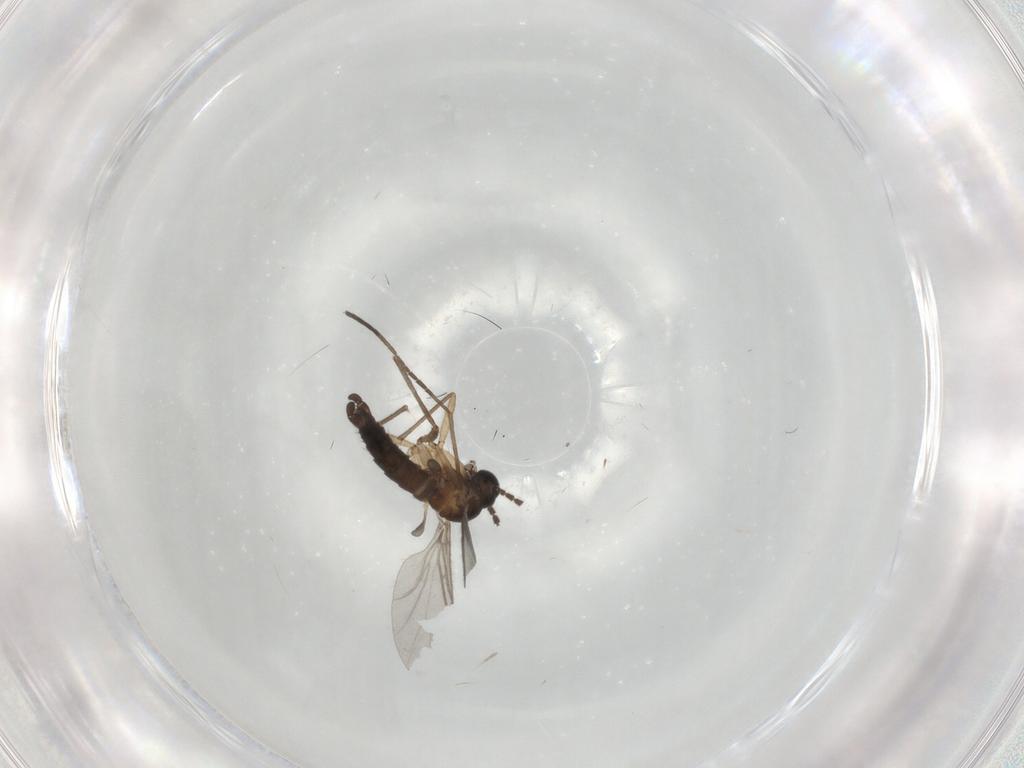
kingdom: Animalia
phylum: Arthropoda
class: Insecta
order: Diptera
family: Sciaridae
